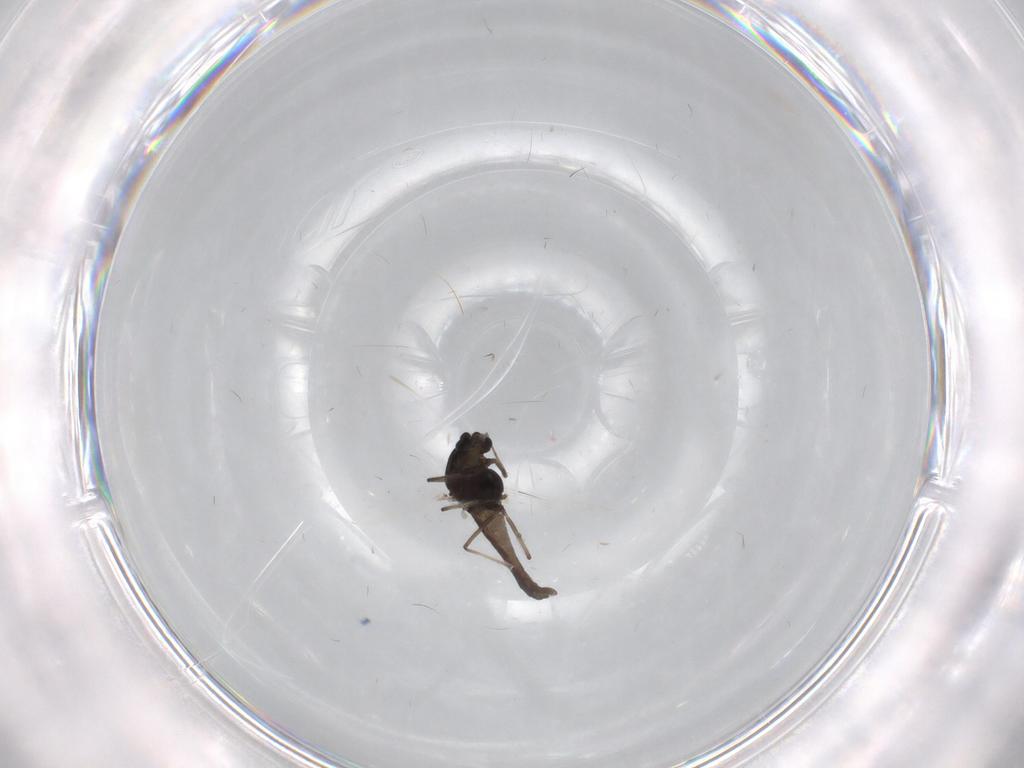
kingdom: Animalia
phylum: Arthropoda
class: Insecta
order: Diptera
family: Chironomidae
